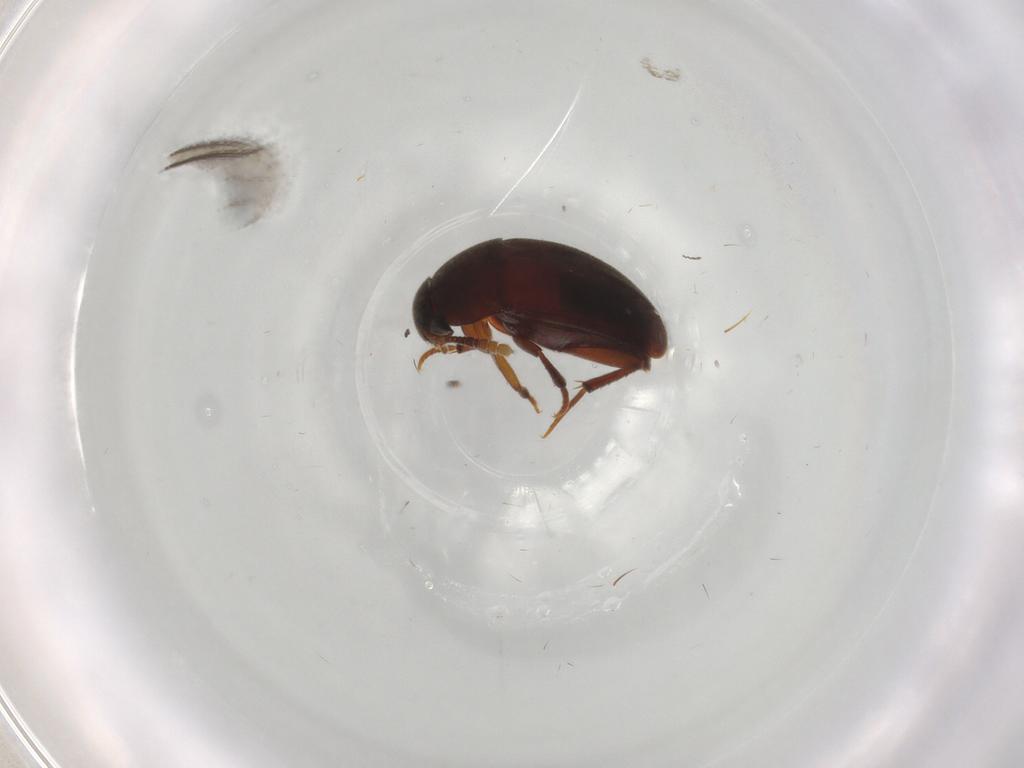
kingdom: Animalia
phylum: Arthropoda
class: Insecta
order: Coleoptera
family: Leiodidae
